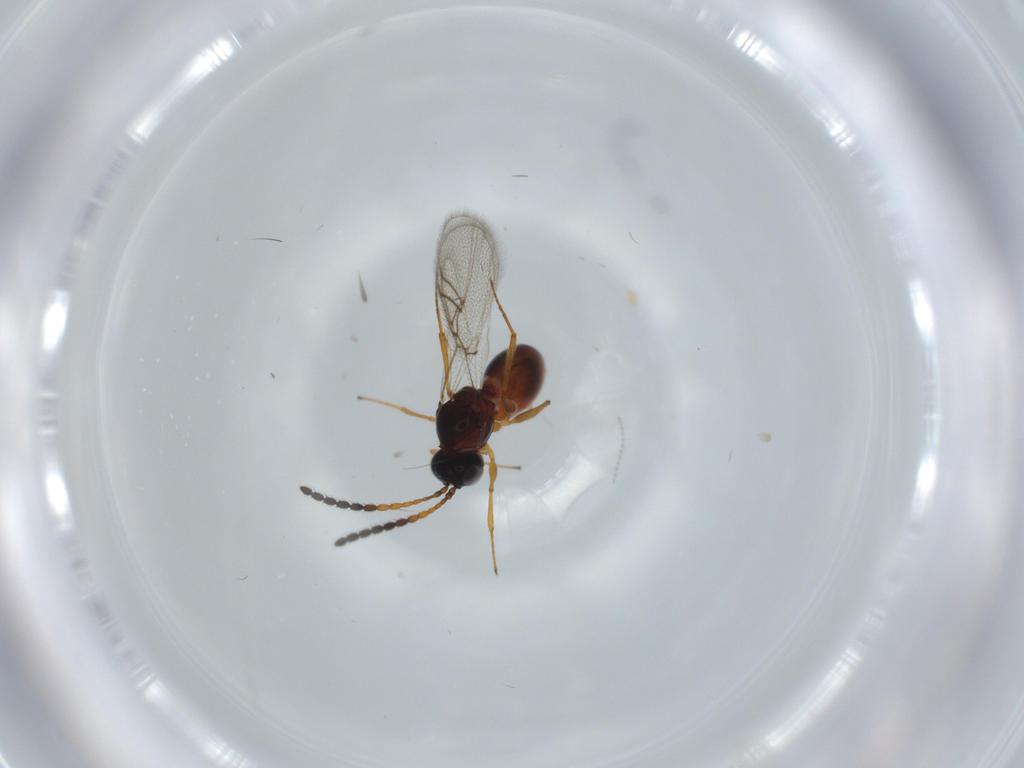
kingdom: Animalia
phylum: Arthropoda
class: Insecta
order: Hymenoptera
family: Figitidae
